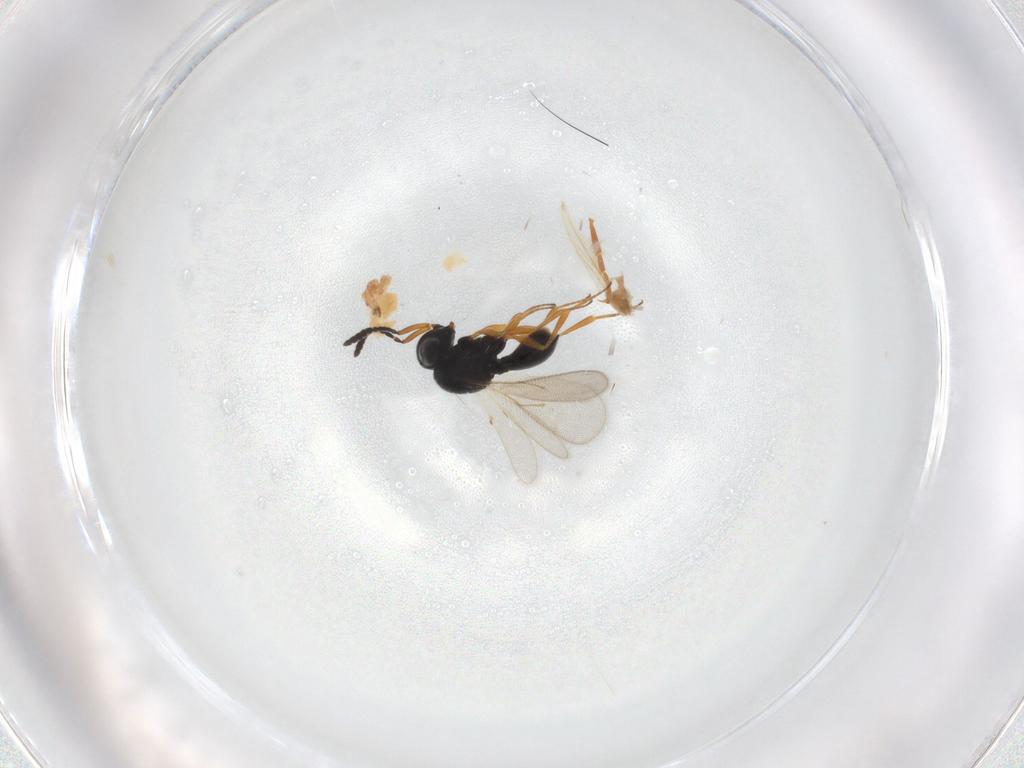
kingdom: Animalia
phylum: Arthropoda
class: Insecta
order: Hymenoptera
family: Scelionidae
